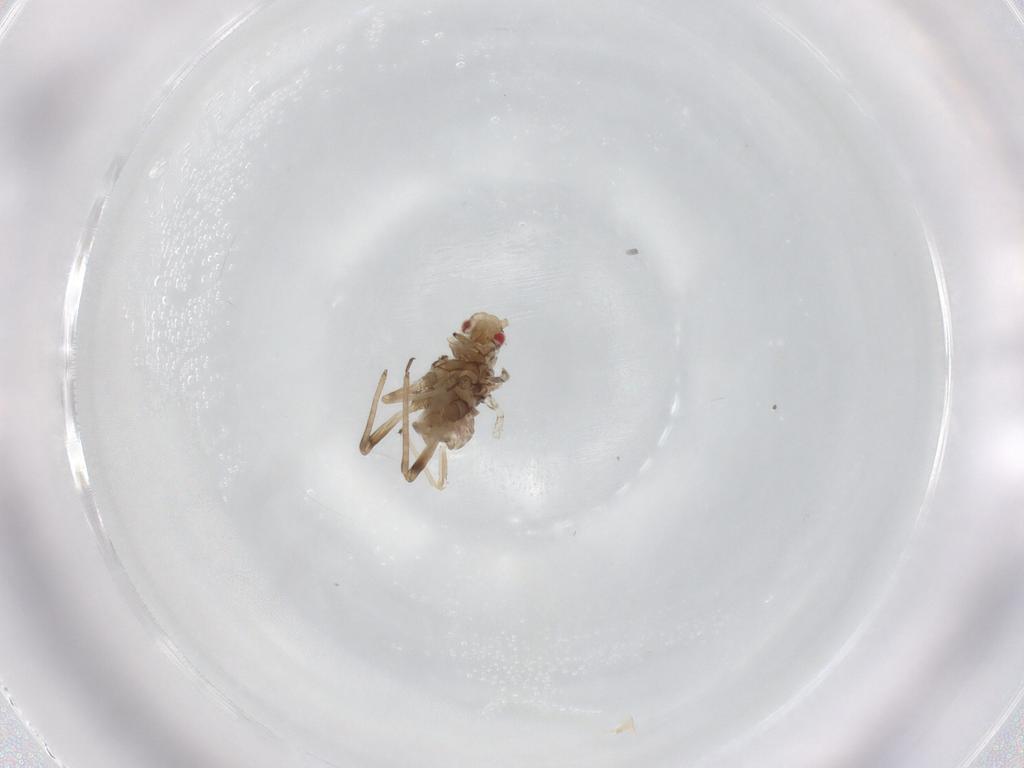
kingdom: Animalia
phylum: Arthropoda
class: Insecta
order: Hemiptera
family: Aphididae
